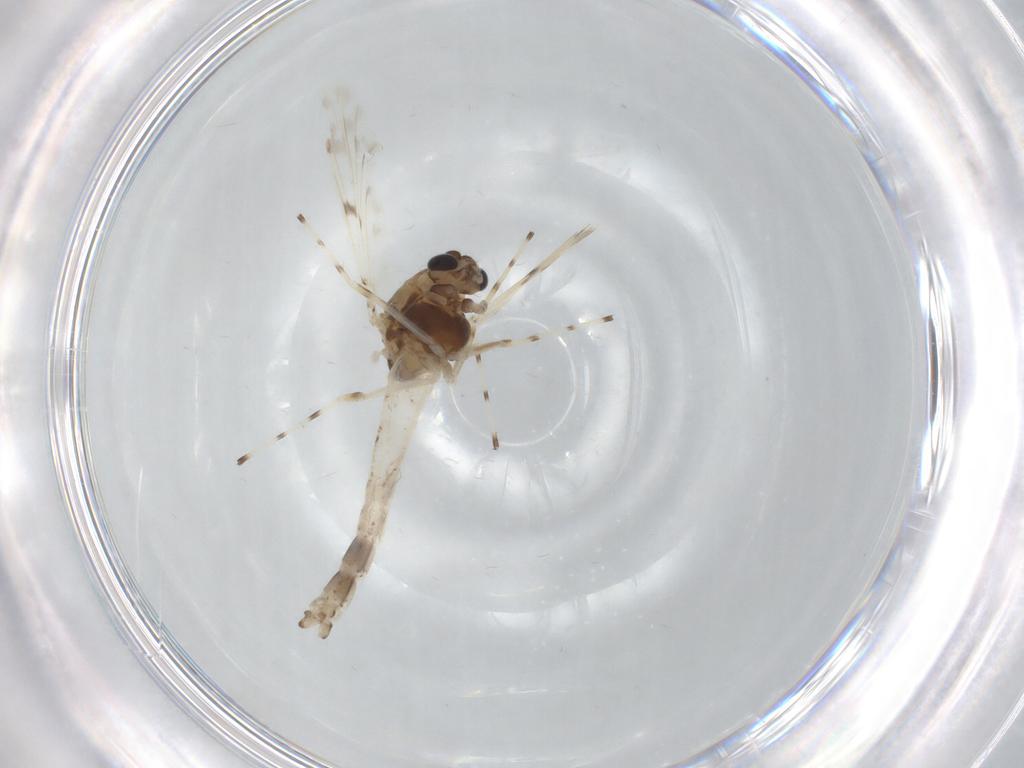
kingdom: Animalia
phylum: Arthropoda
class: Insecta
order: Diptera
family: Chironomidae
